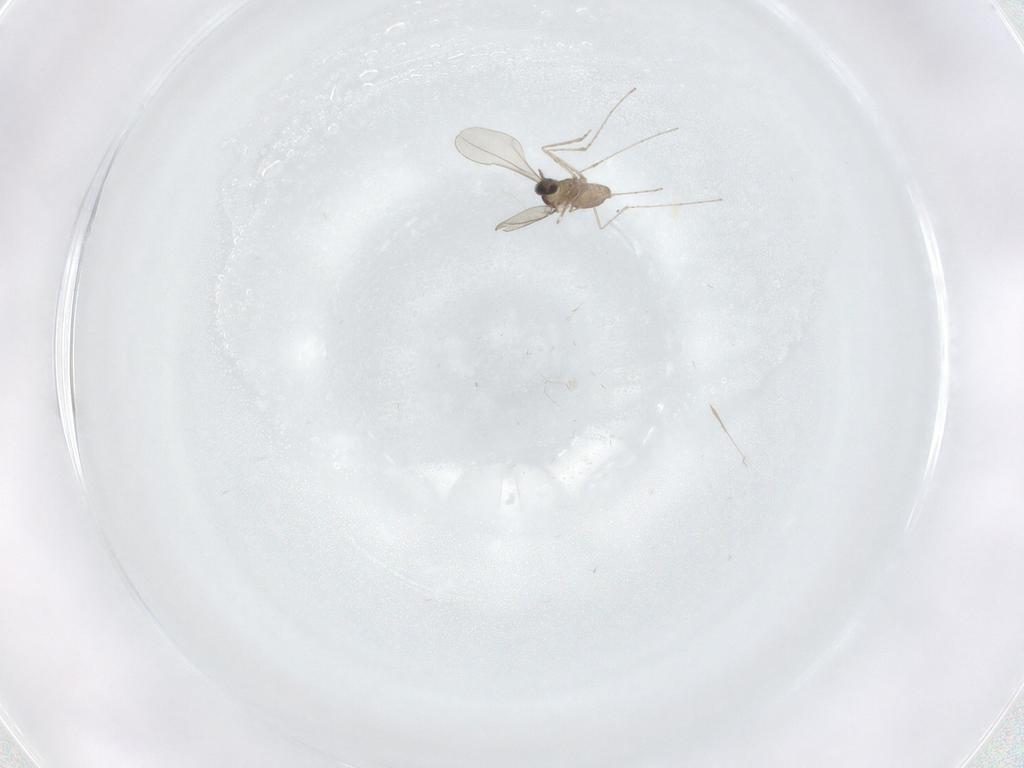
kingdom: Animalia
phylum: Arthropoda
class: Insecta
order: Diptera
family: Cecidomyiidae
